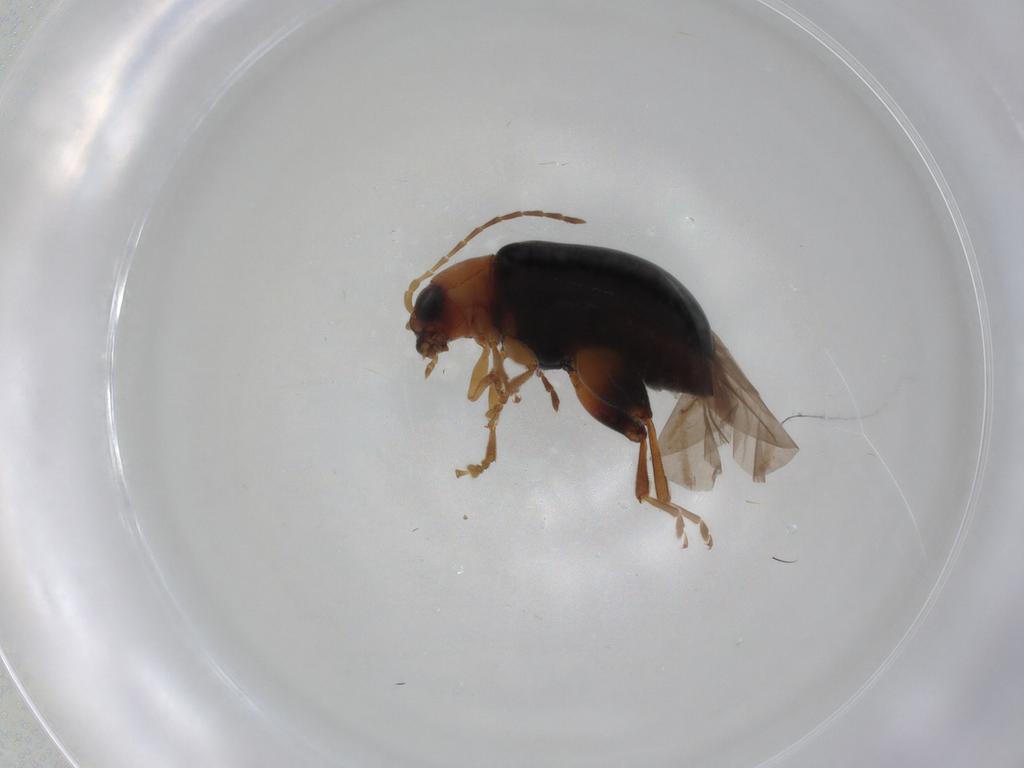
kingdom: Animalia
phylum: Arthropoda
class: Insecta
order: Coleoptera
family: Chrysomelidae
